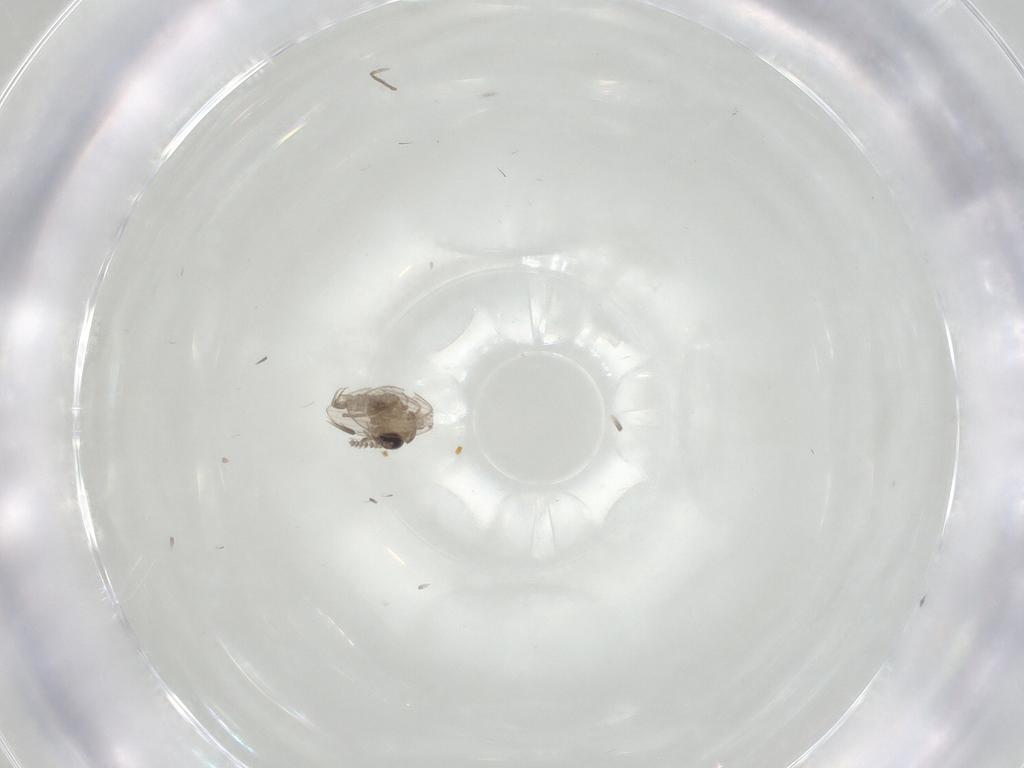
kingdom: Animalia
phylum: Arthropoda
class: Insecta
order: Diptera
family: Psychodidae
